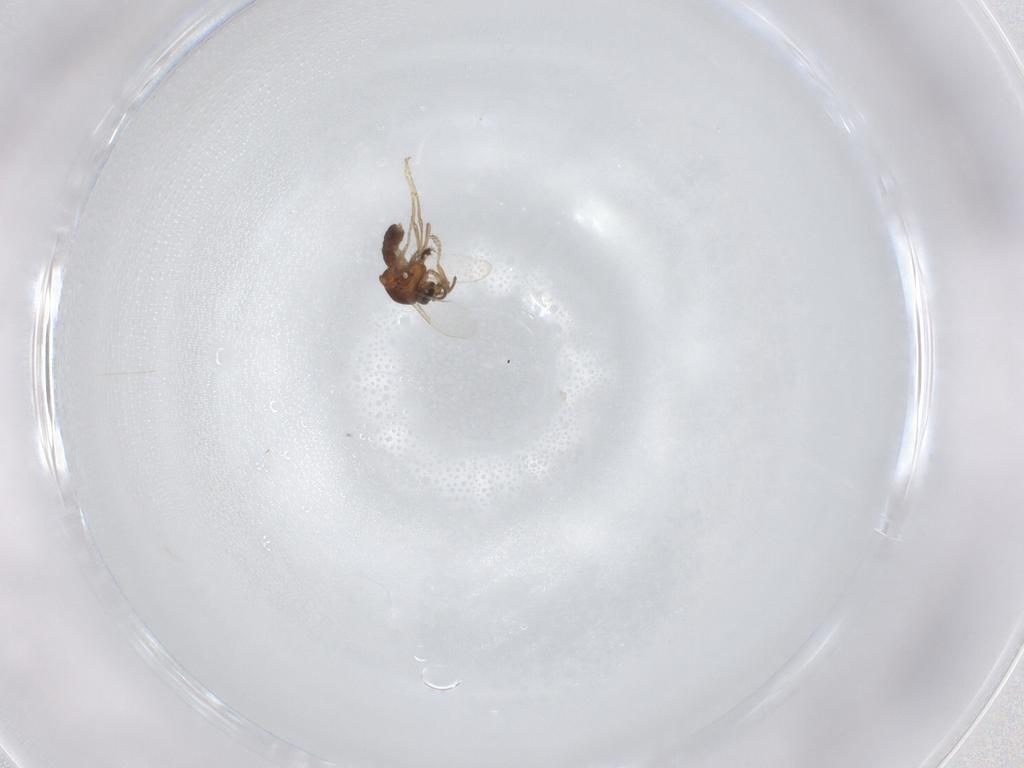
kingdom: Animalia
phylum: Arthropoda
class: Insecta
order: Diptera
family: Ceratopogonidae
